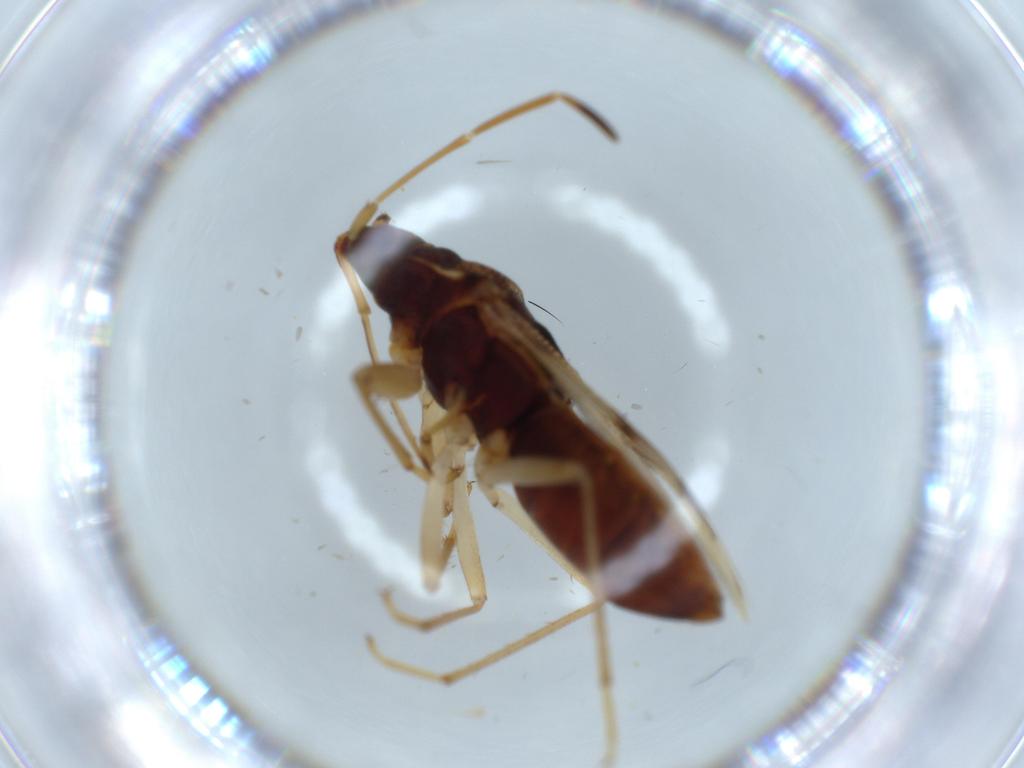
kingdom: Animalia
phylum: Arthropoda
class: Insecta
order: Hemiptera
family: Rhyparochromidae
